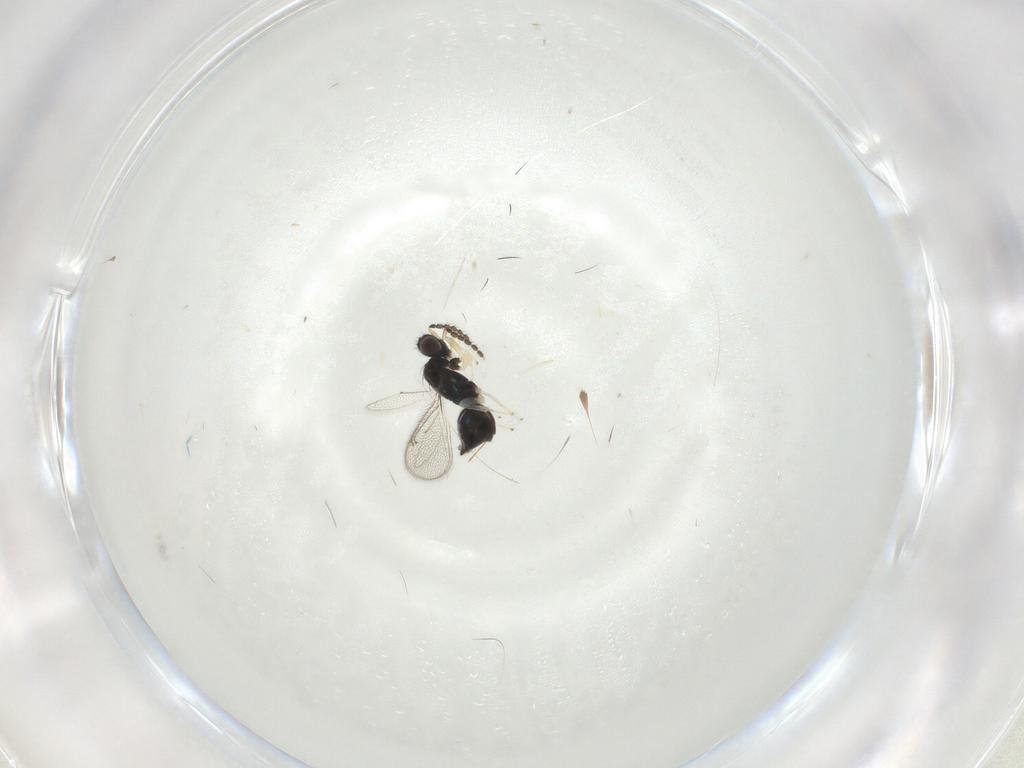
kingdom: Animalia
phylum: Arthropoda
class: Insecta
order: Hymenoptera
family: Eulophidae
